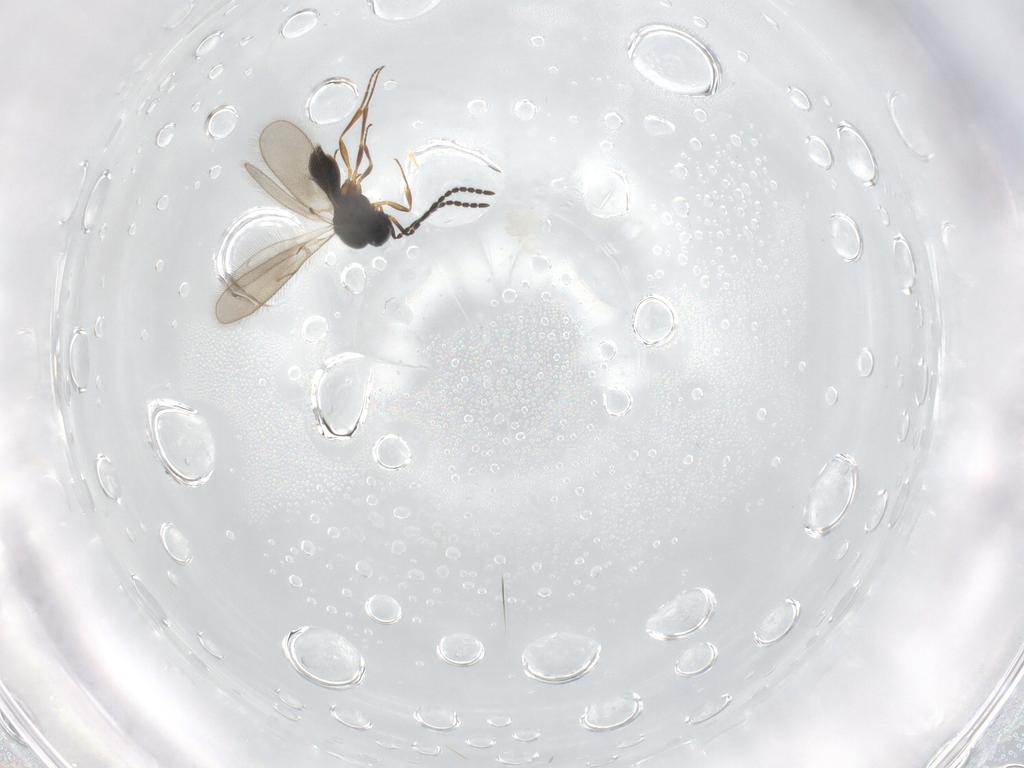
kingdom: Animalia
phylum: Arthropoda
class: Insecta
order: Hymenoptera
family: Scelionidae
